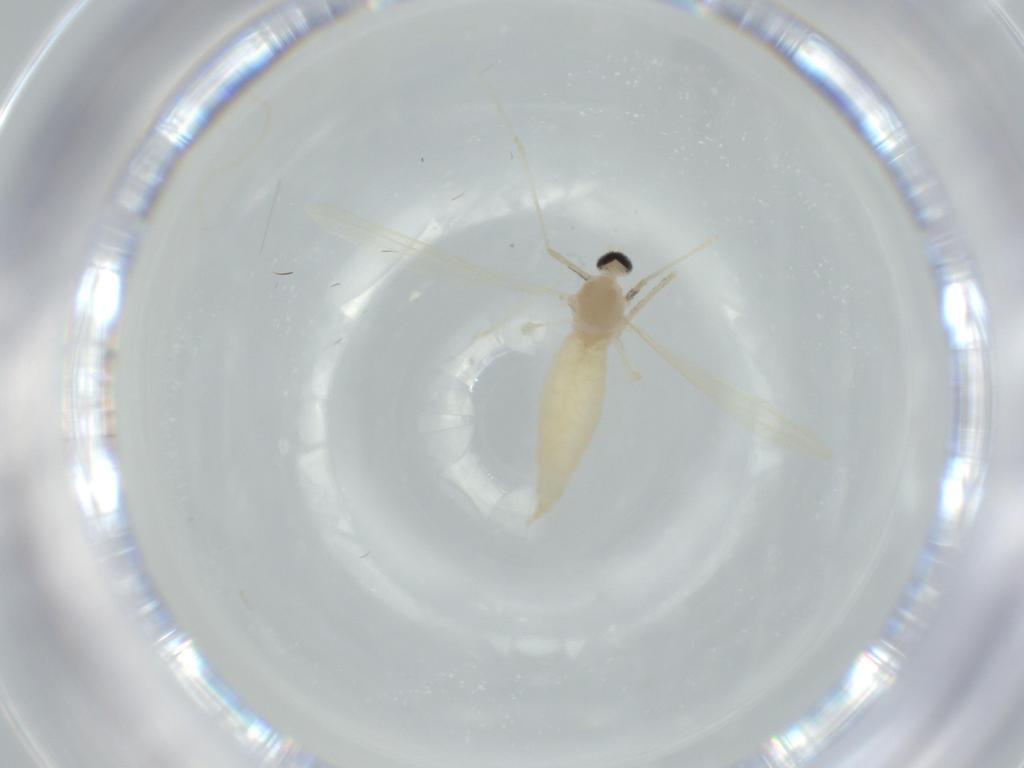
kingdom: Animalia
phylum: Arthropoda
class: Insecta
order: Diptera
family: Cecidomyiidae
